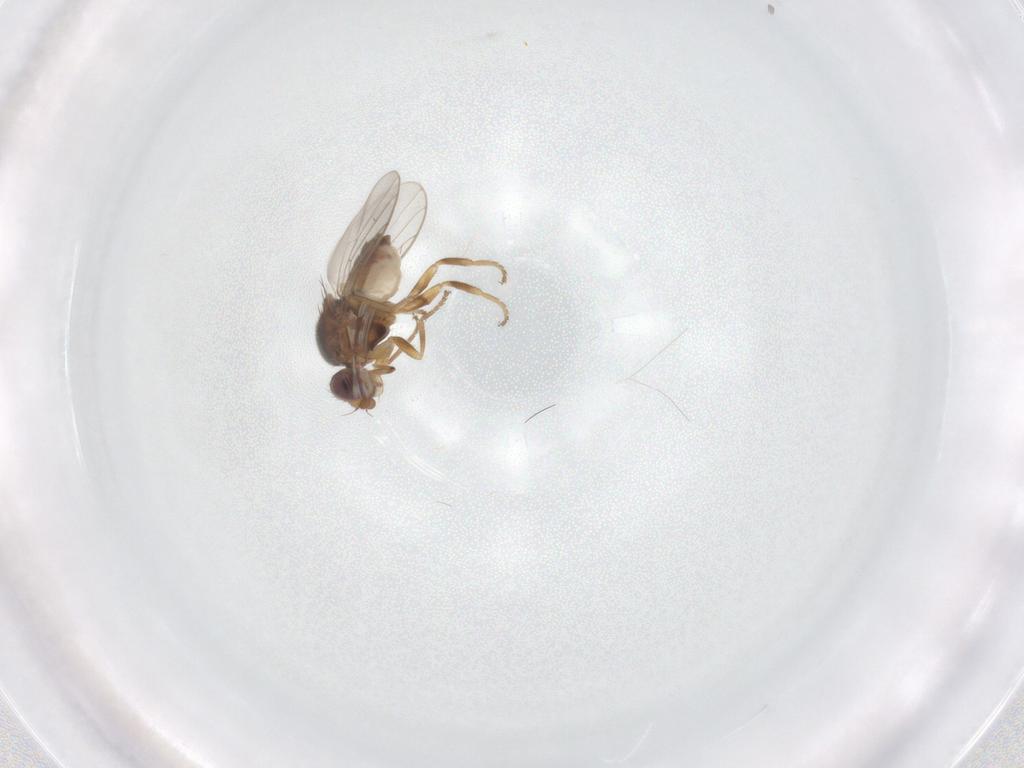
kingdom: Animalia
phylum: Arthropoda
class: Insecta
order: Diptera
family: Chloropidae
